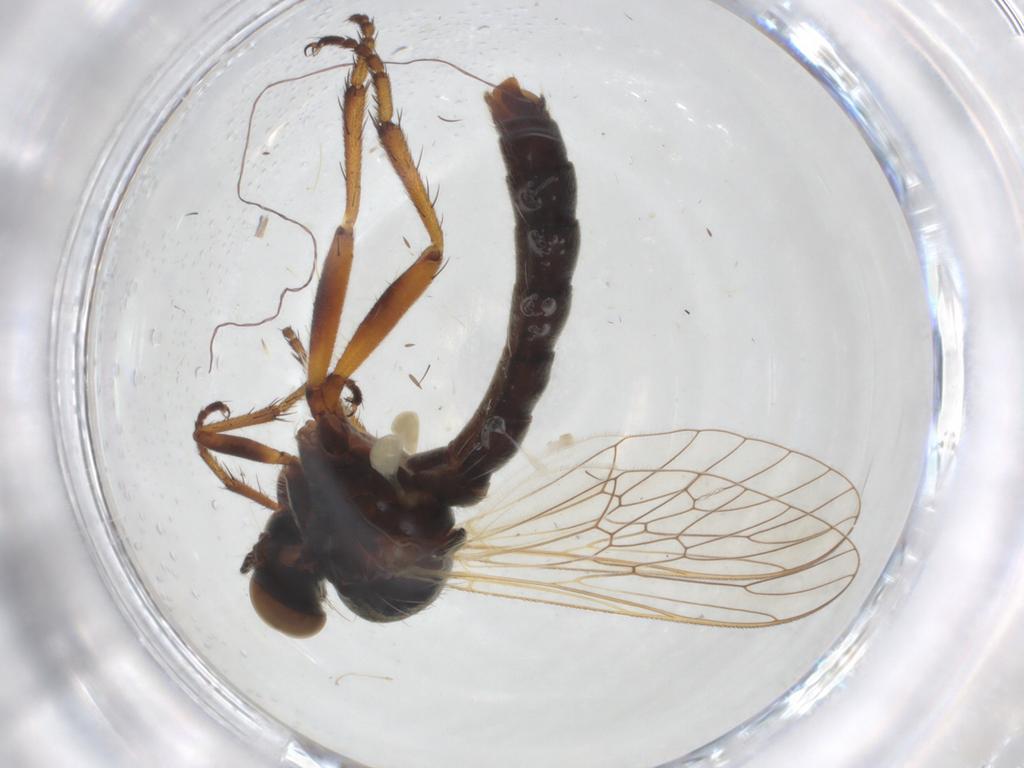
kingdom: Animalia
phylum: Arthropoda
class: Insecta
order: Diptera
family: Asilidae
